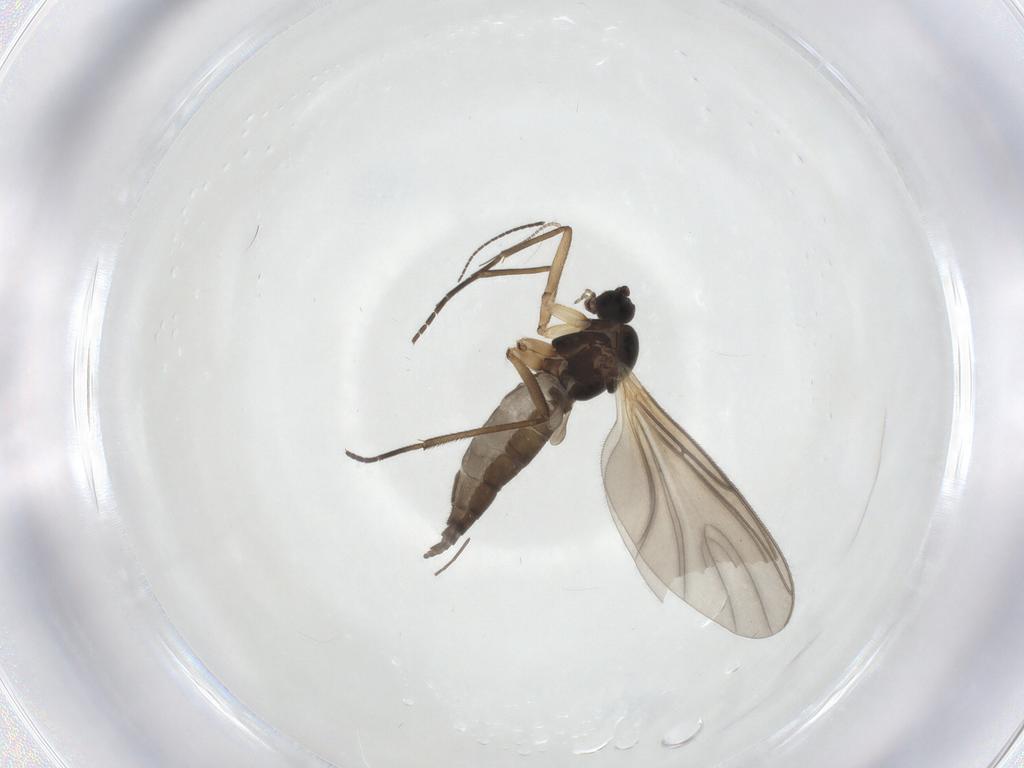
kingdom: Animalia
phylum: Arthropoda
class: Insecta
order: Diptera
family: Sciaridae
